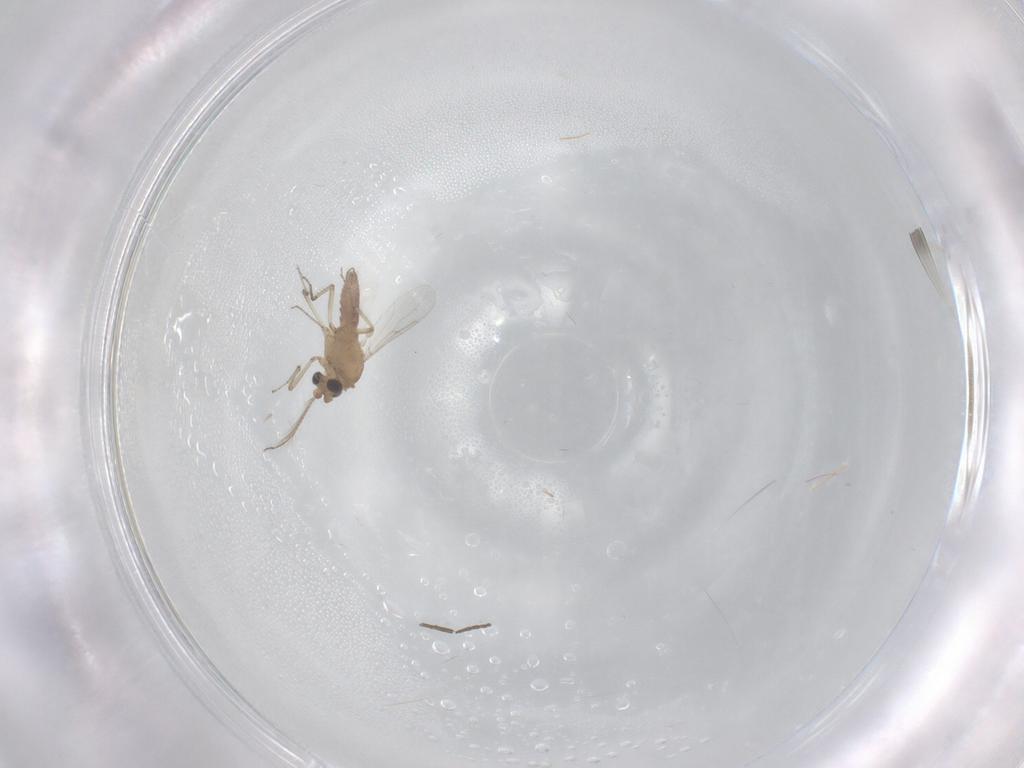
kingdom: Animalia
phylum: Arthropoda
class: Insecta
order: Diptera
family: Ceratopogonidae
